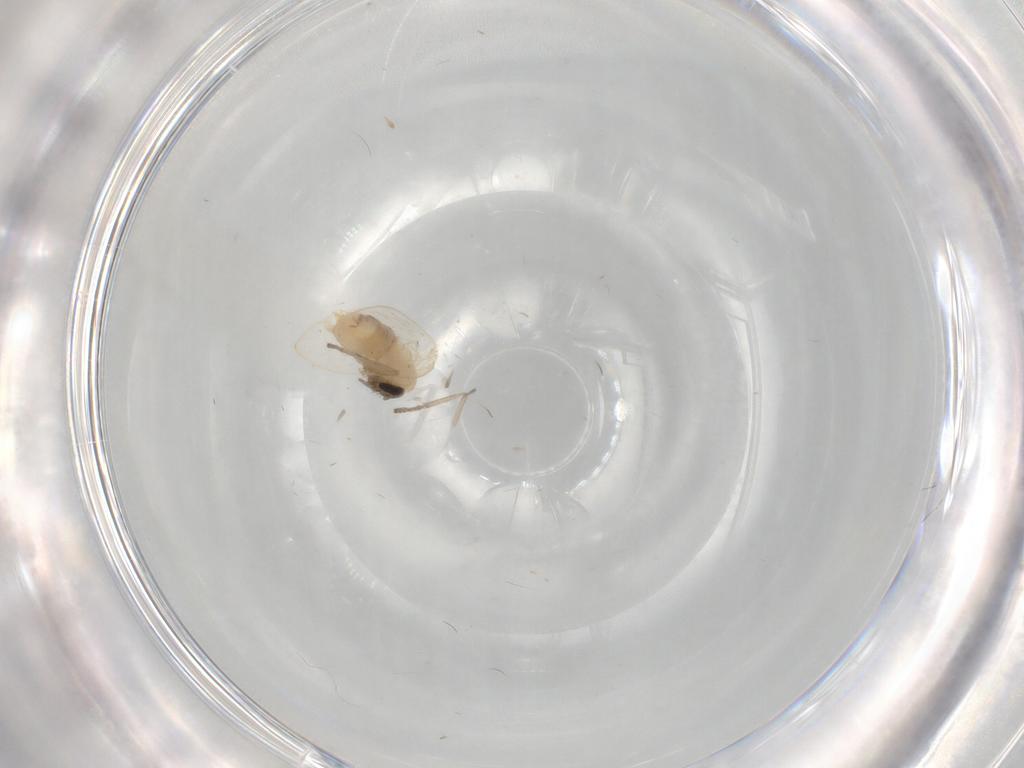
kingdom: Animalia
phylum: Arthropoda
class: Insecta
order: Diptera
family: Psychodidae
